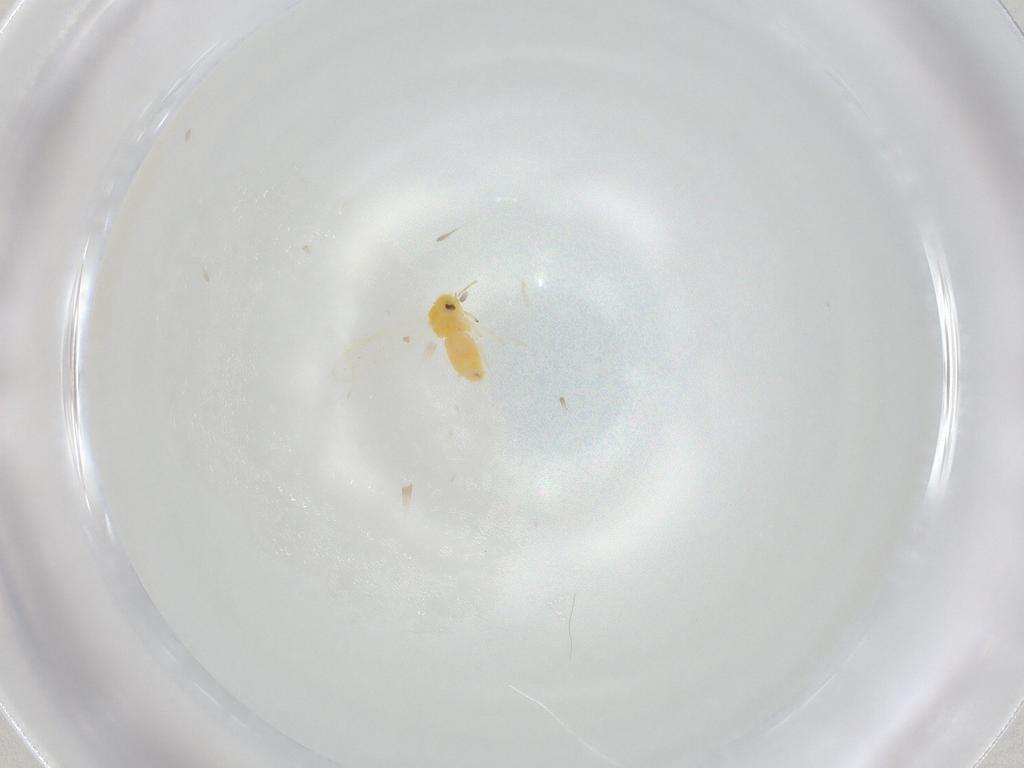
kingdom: Animalia
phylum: Arthropoda
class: Insecta
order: Hemiptera
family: Aleyrodidae
